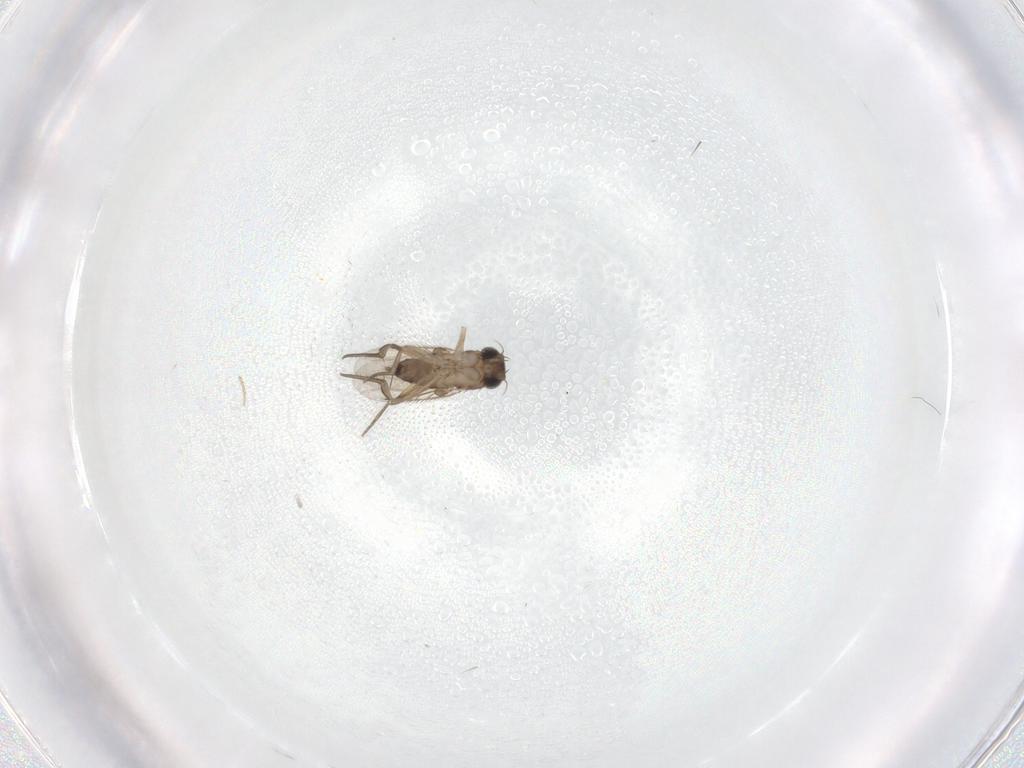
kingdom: Animalia
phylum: Arthropoda
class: Insecta
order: Diptera
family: Phoridae
